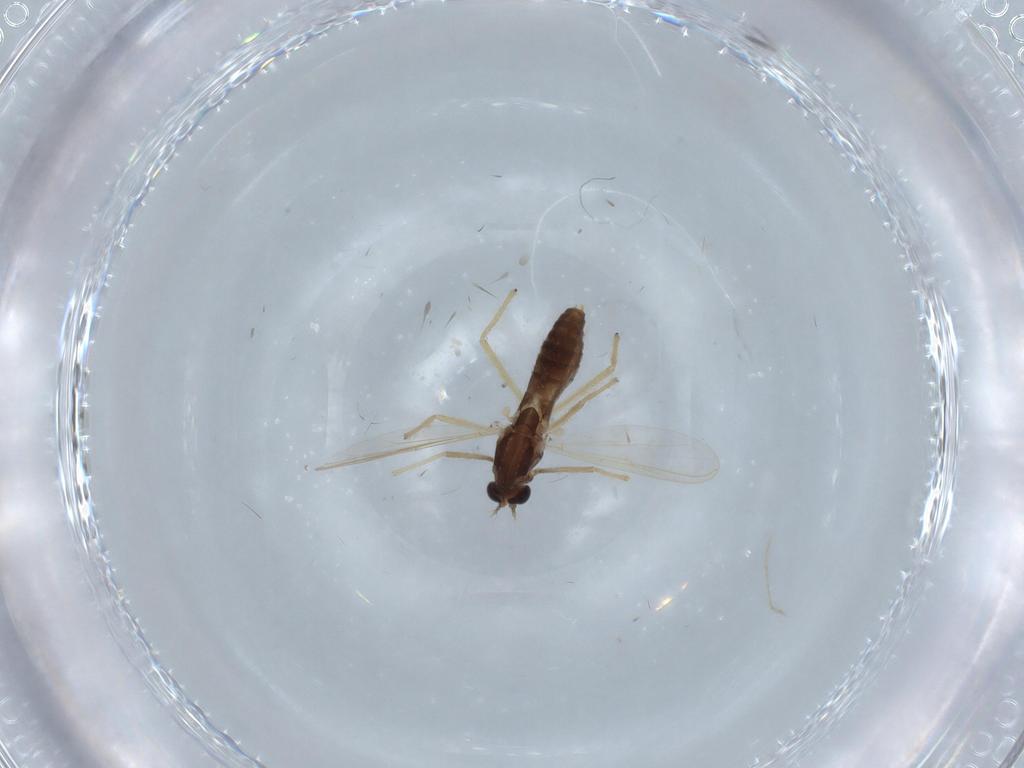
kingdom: Animalia
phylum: Arthropoda
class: Insecta
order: Diptera
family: Chironomidae
